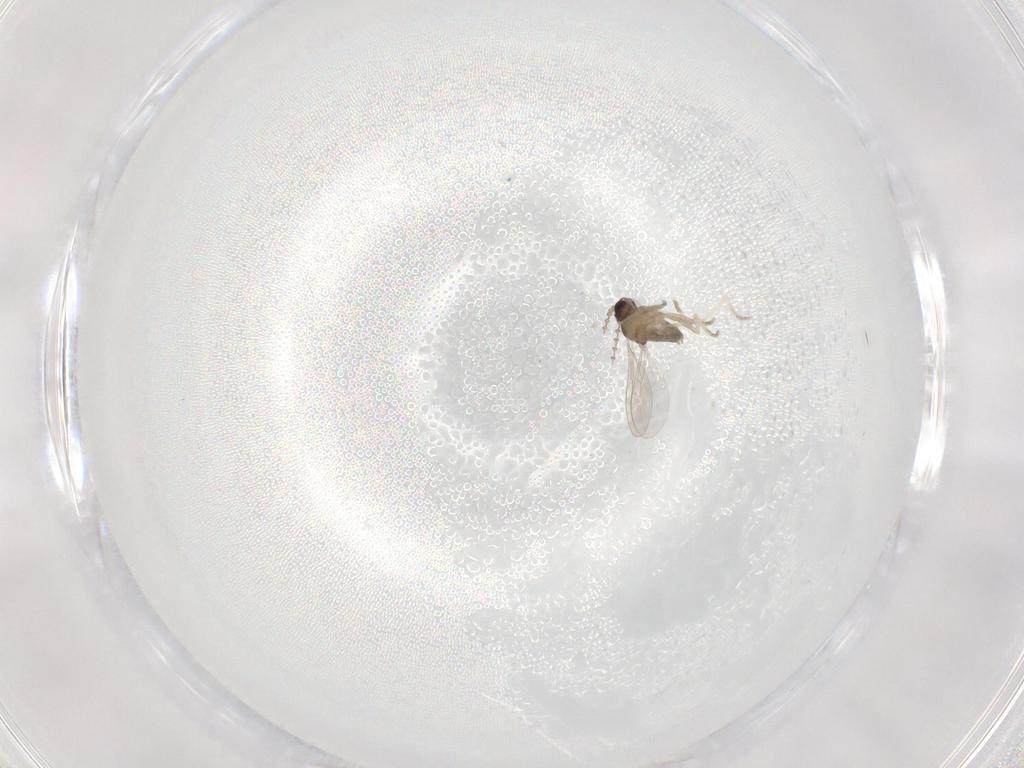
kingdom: Animalia
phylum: Arthropoda
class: Insecta
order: Diptera
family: Cecidomyiidae
